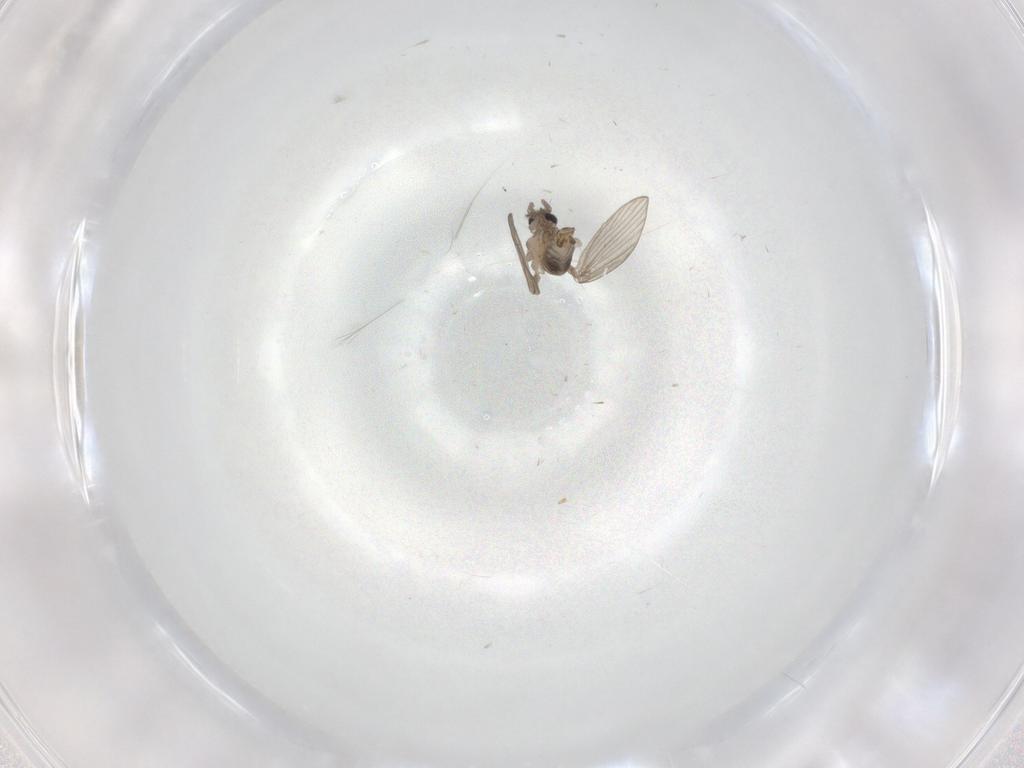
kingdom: Animalia
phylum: Arthropoda
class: Insecta
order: Diptera
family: Psychodidae
